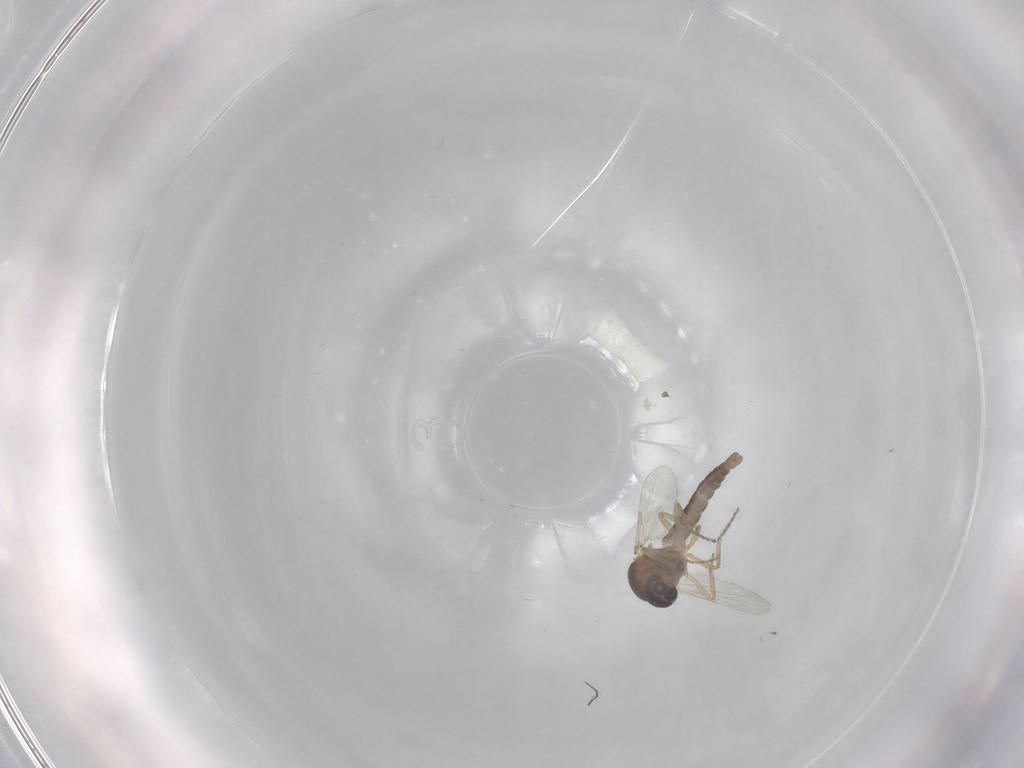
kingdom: Animalia
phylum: Arthropoda
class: Insecta
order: Diptera
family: Ceratopogonidae
